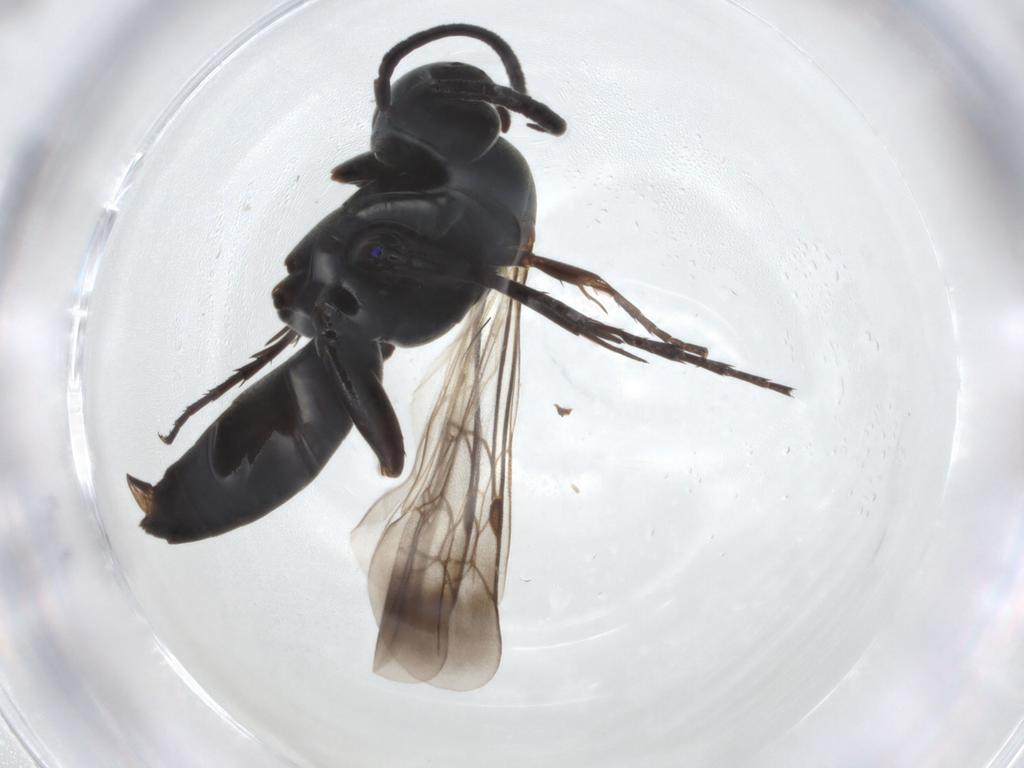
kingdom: Animalia
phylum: Arthropoda
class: Insecta
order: Hymenoptera
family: Pompilidae
